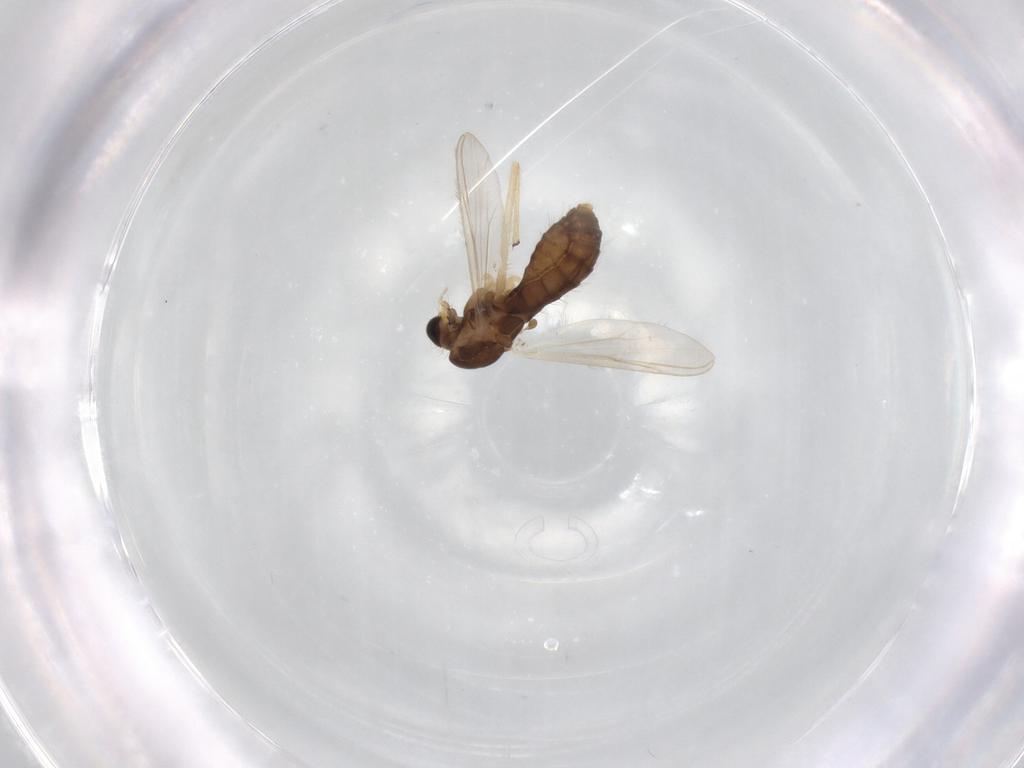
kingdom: Animalia
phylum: Arthropoda
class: Insecta
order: Diptera
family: Chironomidae
